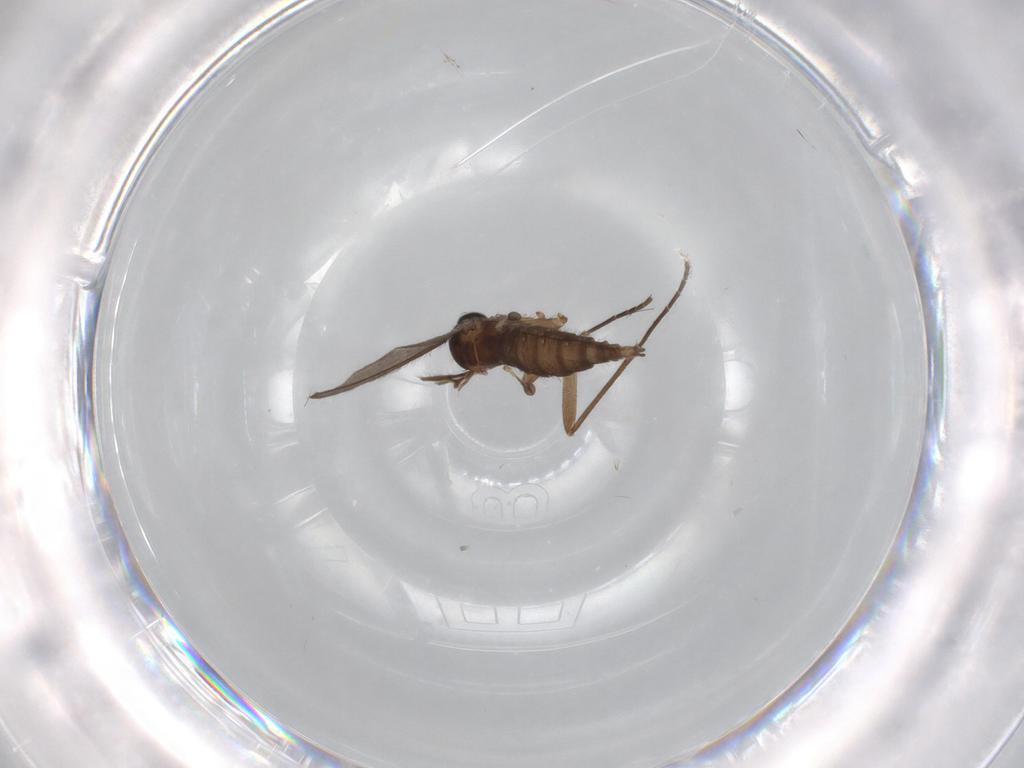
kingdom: Animalia
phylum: Arthropoda
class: Insecta
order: Diptera
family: Sciaridae
